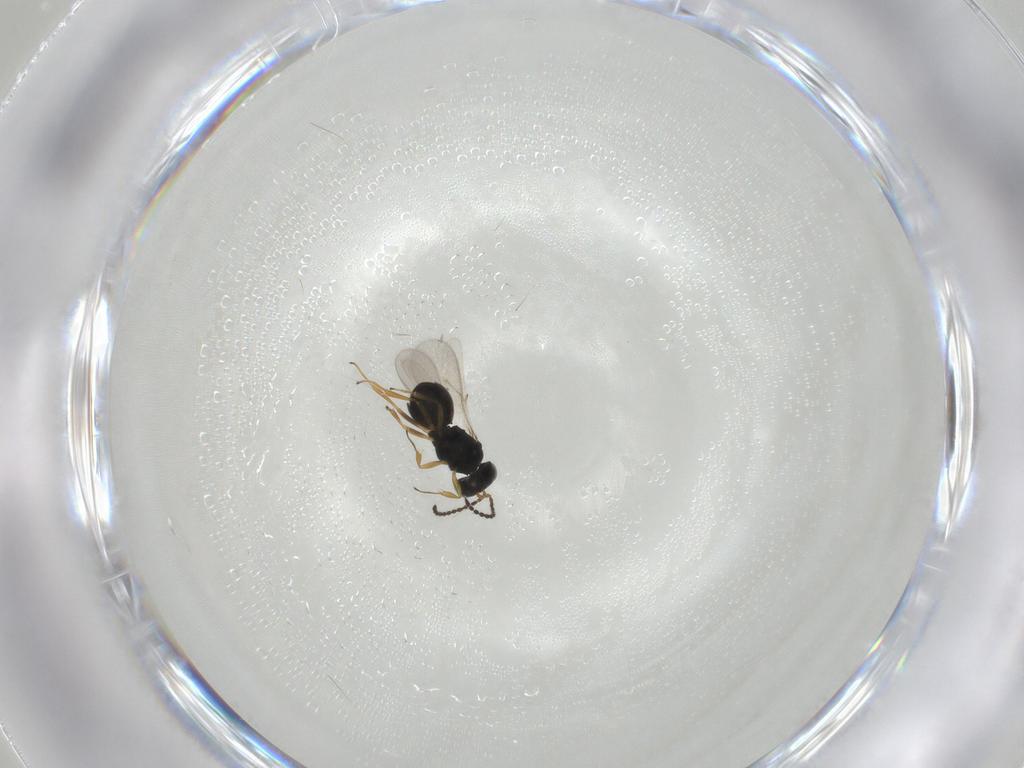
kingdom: Animalia
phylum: Arthropoda
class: Insecta
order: Hymenoptera
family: Scelionidae
